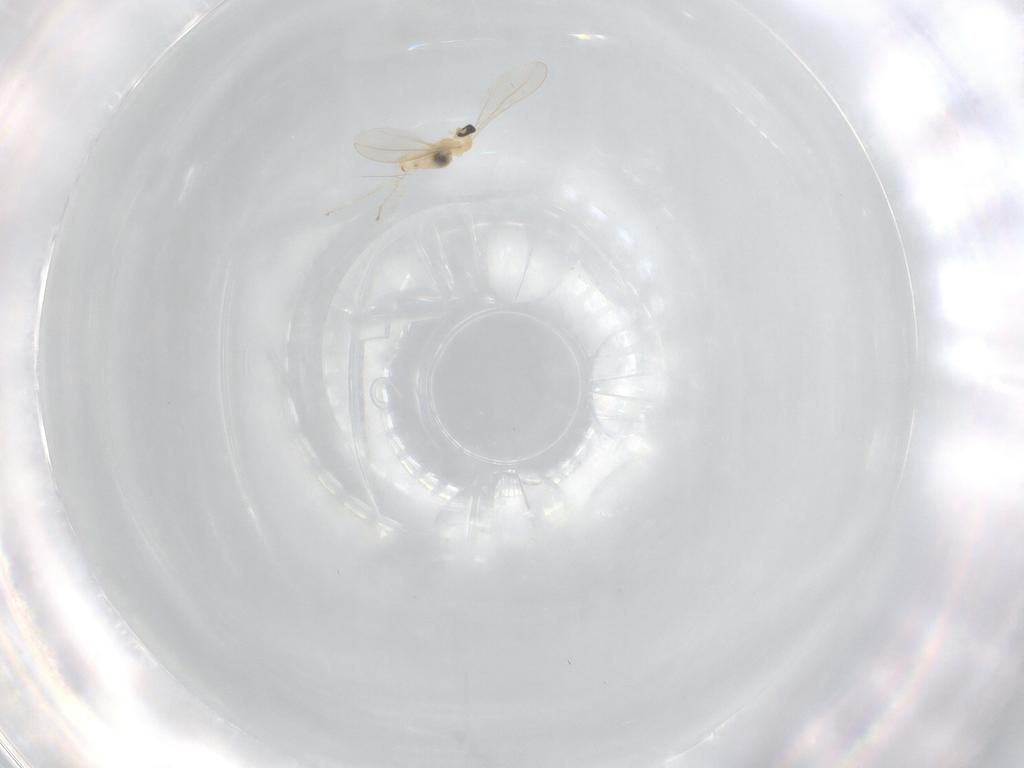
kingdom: Animalia
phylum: Arthropoda
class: Insecta
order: Diptera
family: Cecidomyiidae
